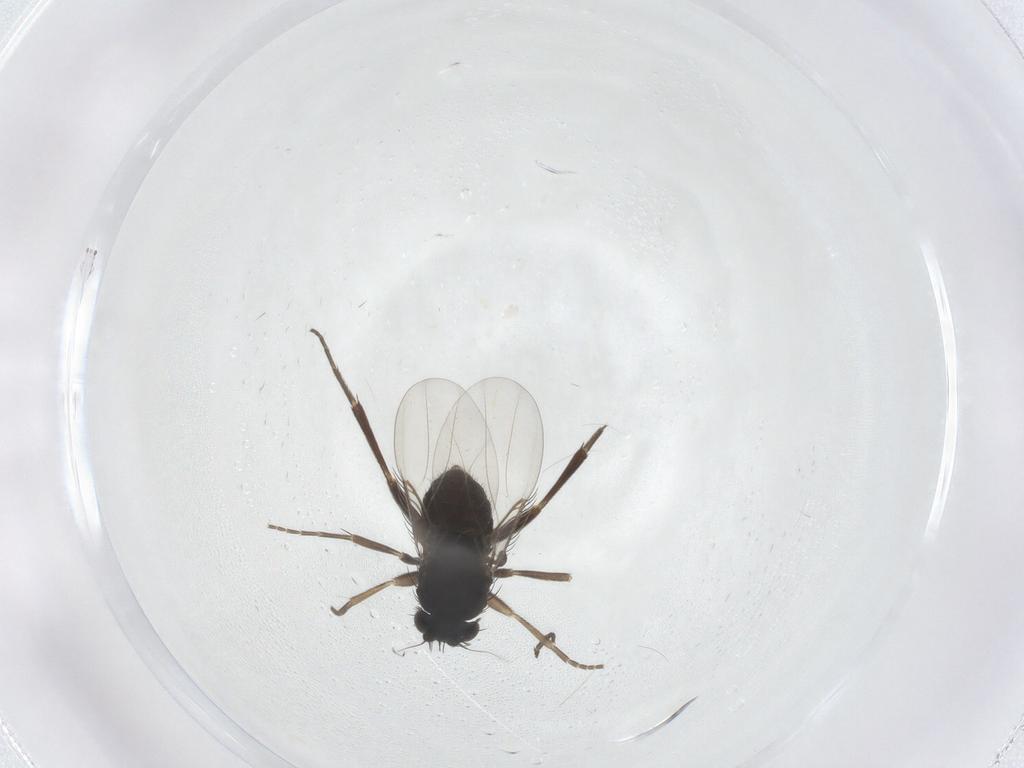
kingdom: Animalia
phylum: Arthropoda
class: Insecta
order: Diptera
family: Phoridae
